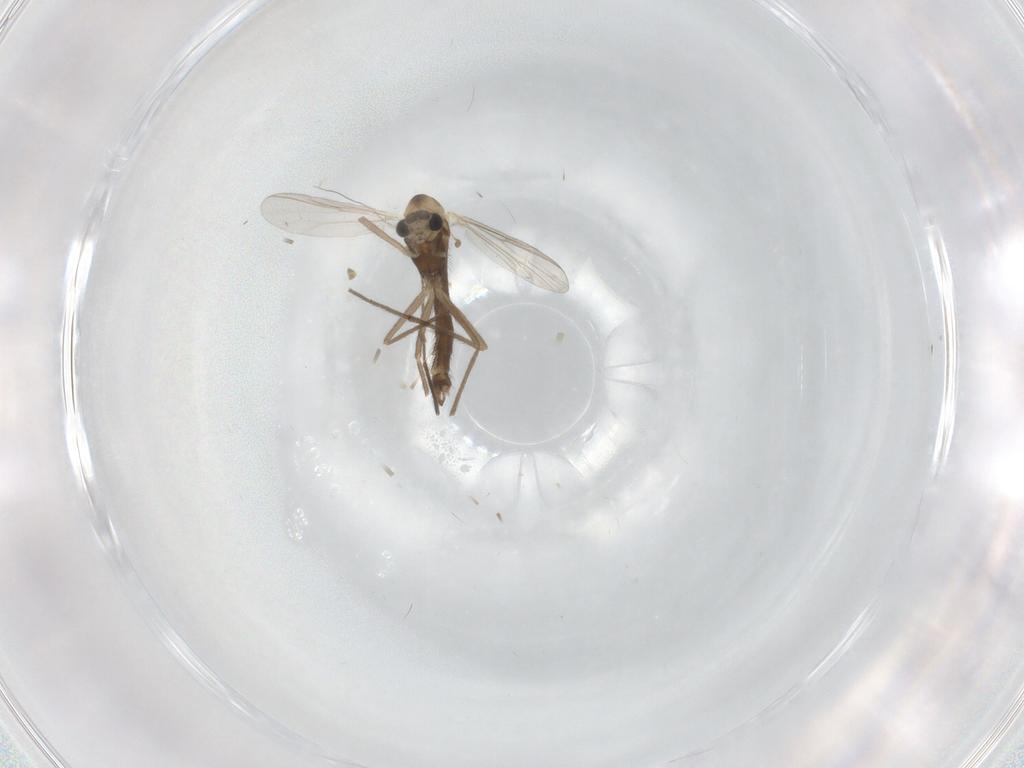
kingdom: Animalia
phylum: Arthropoda
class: Insecta
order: Diptera
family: Chironomidae
